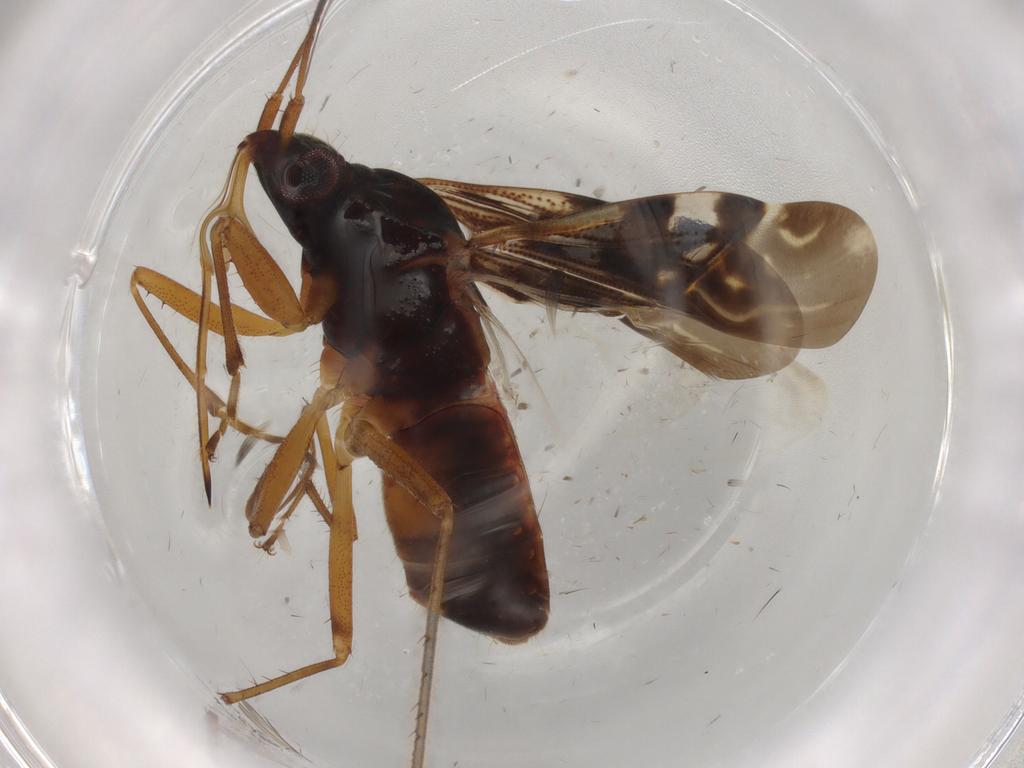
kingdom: Animalia
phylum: Arthropoda
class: Insecta
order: Hemiptera
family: Rhyparochromidae
